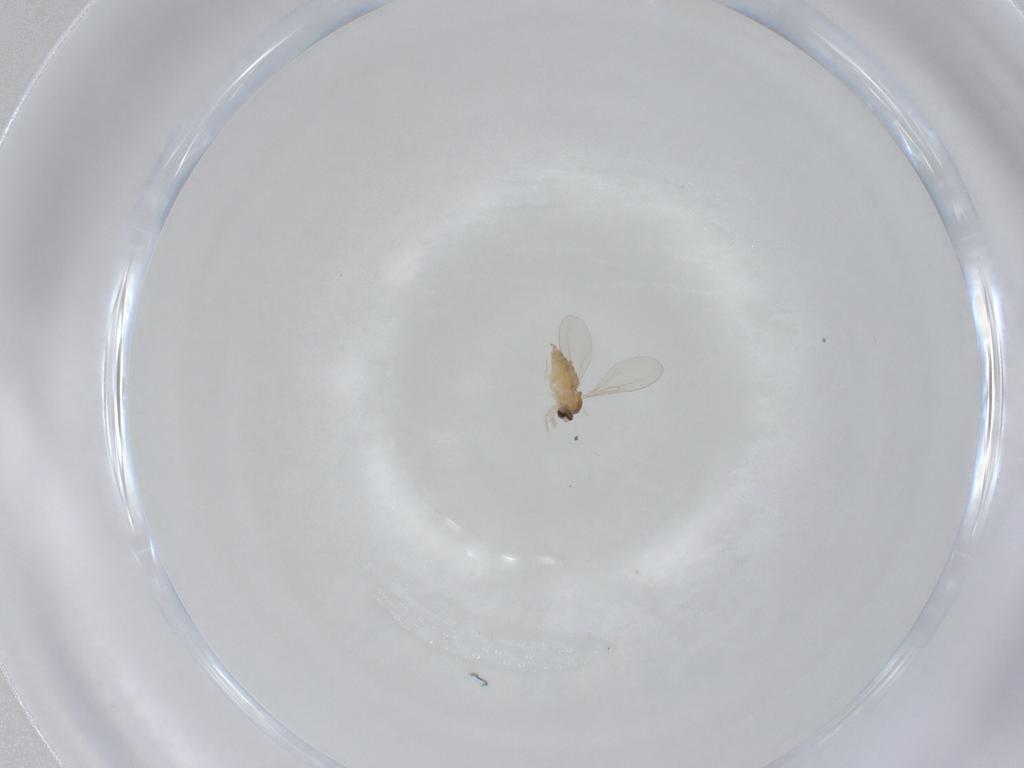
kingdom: Animalia
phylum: Arthropoda
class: Insecta
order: Diptera
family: Cecidomyiidae
